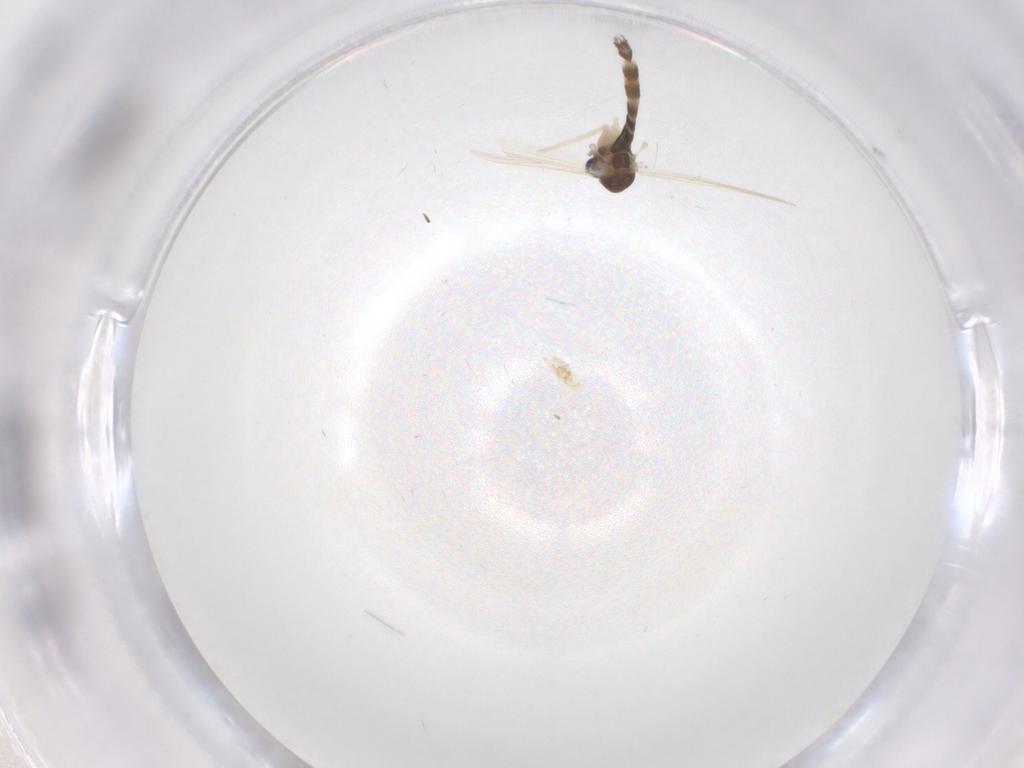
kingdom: Animalia
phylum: Arthropoda
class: Insecta
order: Diptera
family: Chironomidae
